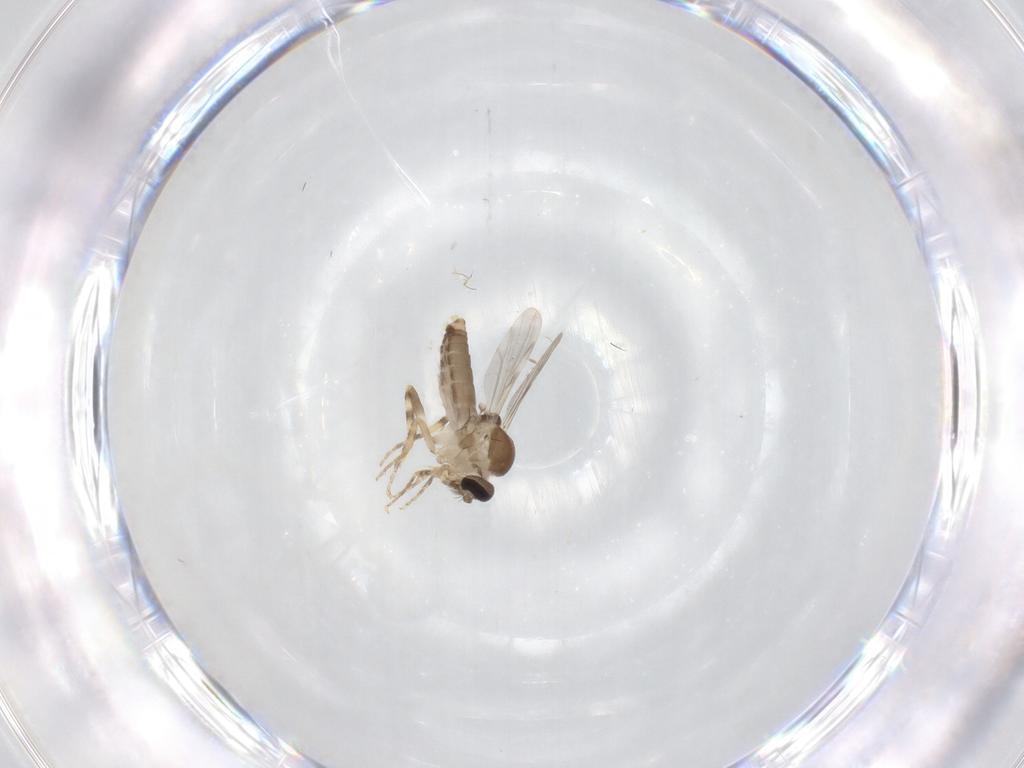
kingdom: Animalia
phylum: Arthropoda
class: Insecta
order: Diptera
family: Ceratopogonidae
